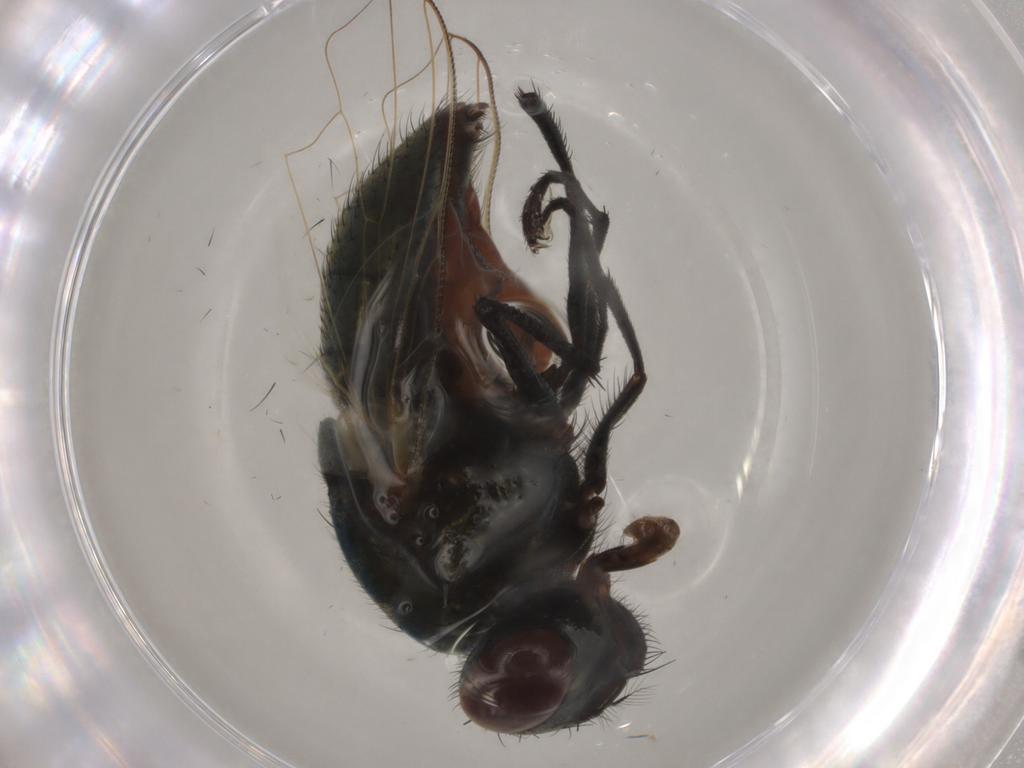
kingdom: Animalia
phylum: Arthropoda
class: Insecta
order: Diptera
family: Muscidae
